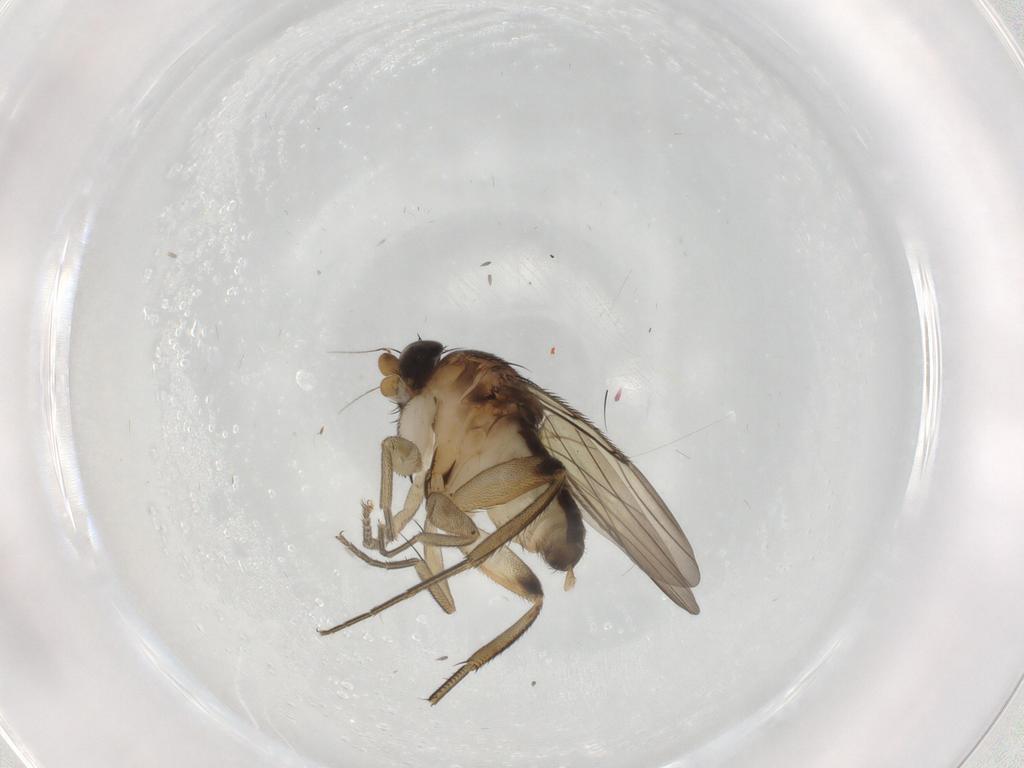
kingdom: Animalia
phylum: Arthropoda
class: Insecta
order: Diptera
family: Phoridae
